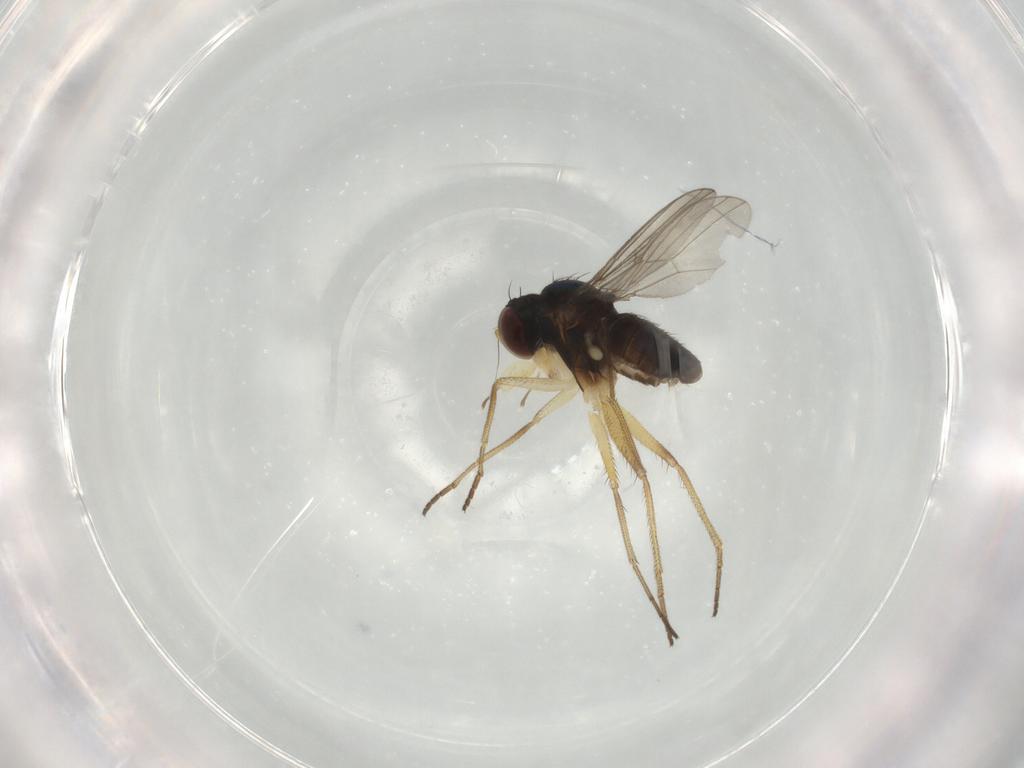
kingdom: Animalia
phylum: Arthropoda
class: Insecta
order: Diptera
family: Dolichopodidae
